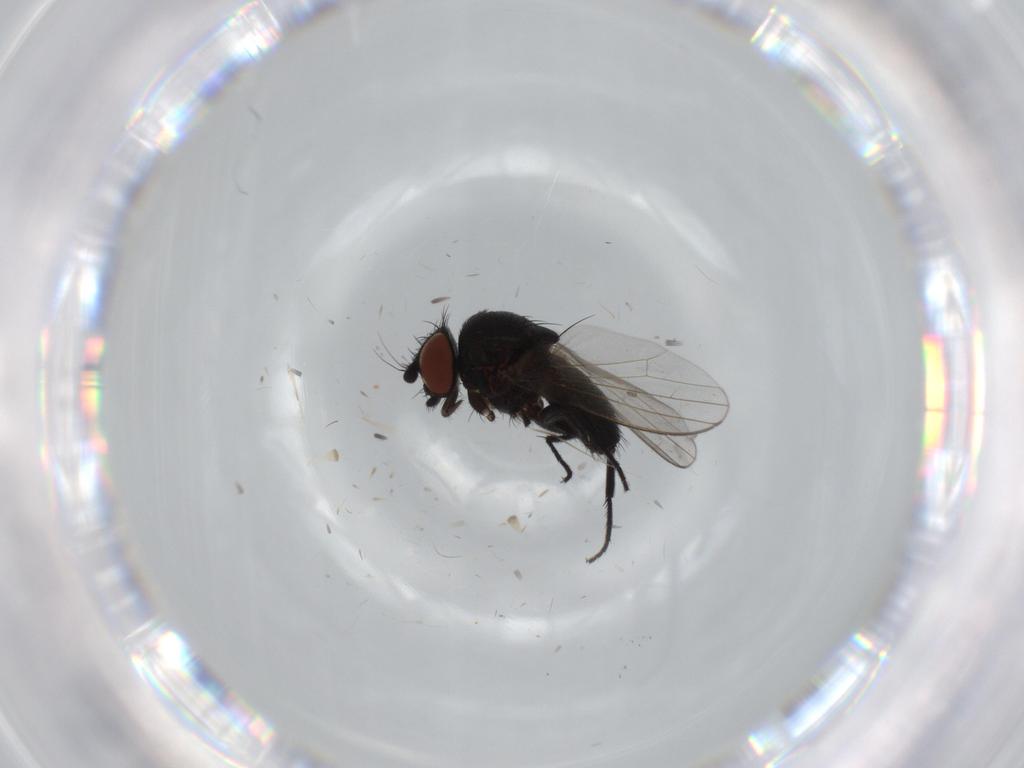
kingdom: Animalia
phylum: Arthropoda
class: Insecta
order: Diptera
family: Milichiidae
